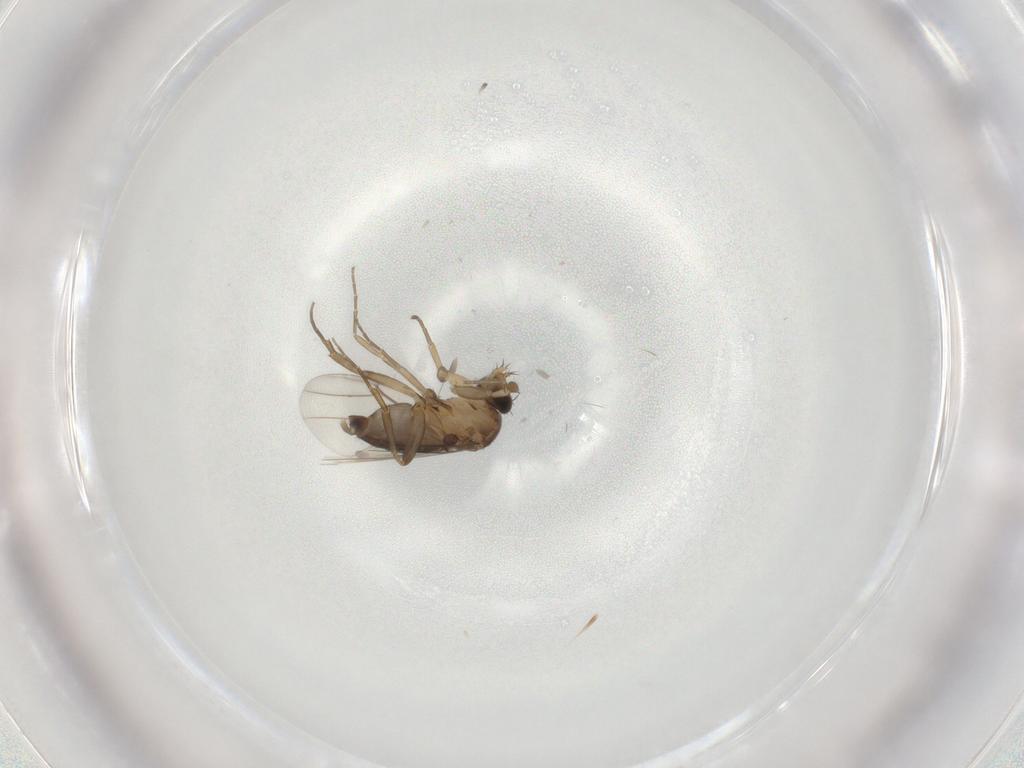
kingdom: Animalia
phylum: Arthropoda
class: Insecta
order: Diptera
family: Phoridae
